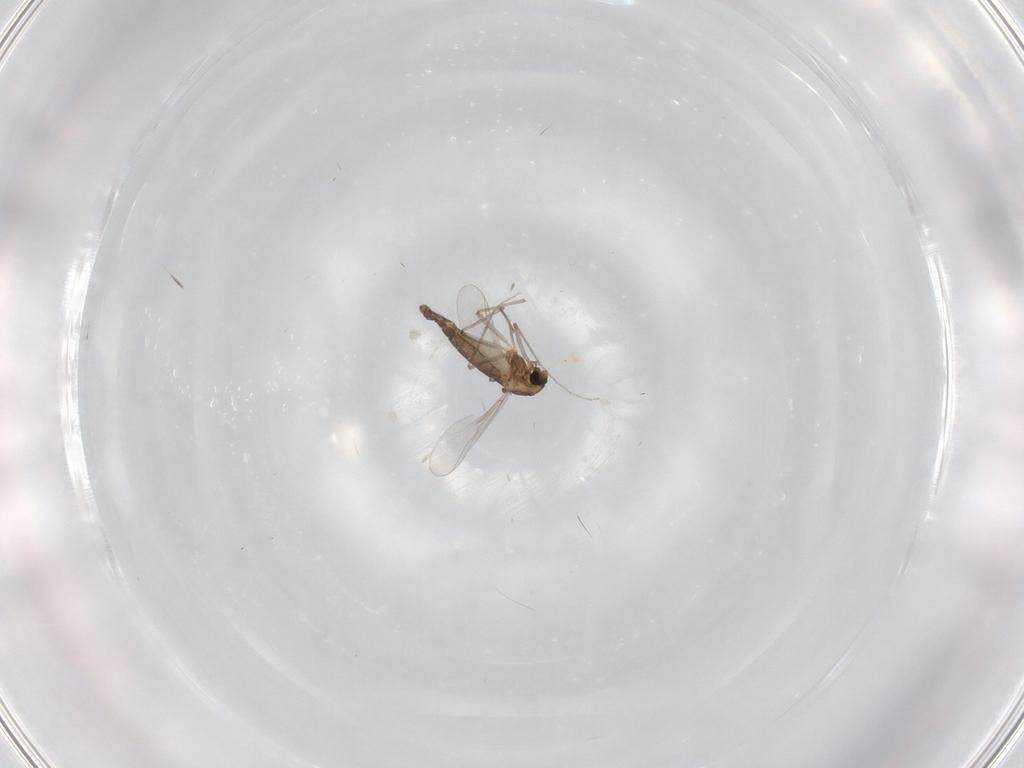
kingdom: Animalia
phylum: Arthropoda
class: Insecta
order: Diptera
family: Chironomidae
